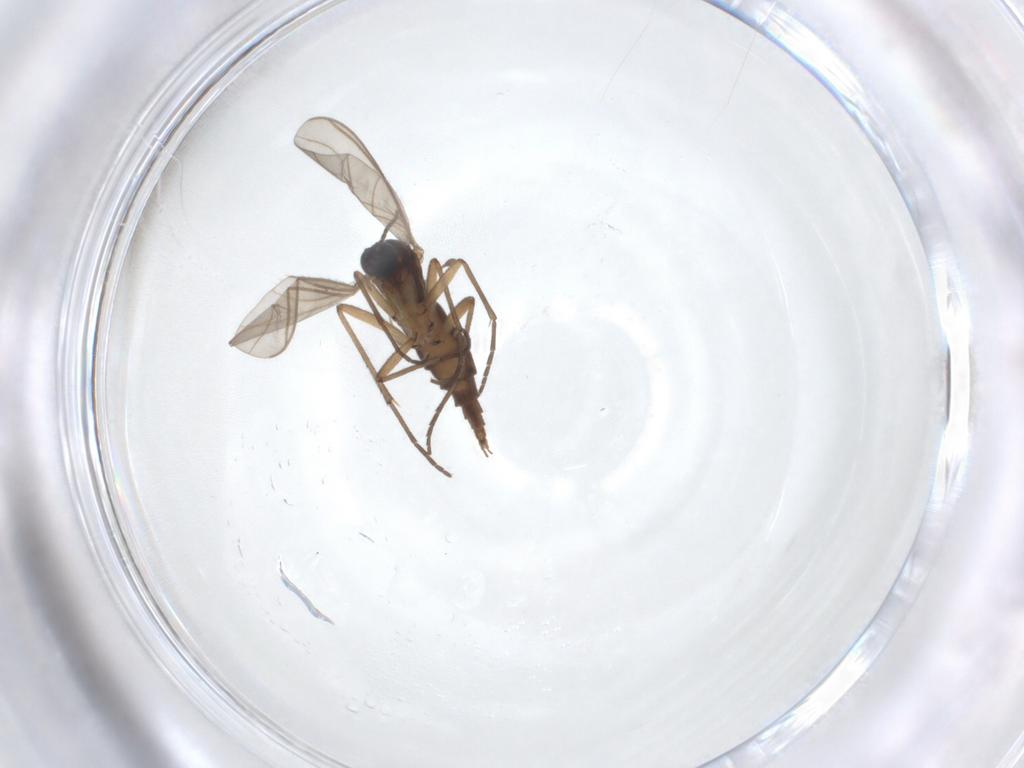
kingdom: Animalia
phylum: Arthropoda
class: Insecta
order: Diptera
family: Sciaridae
